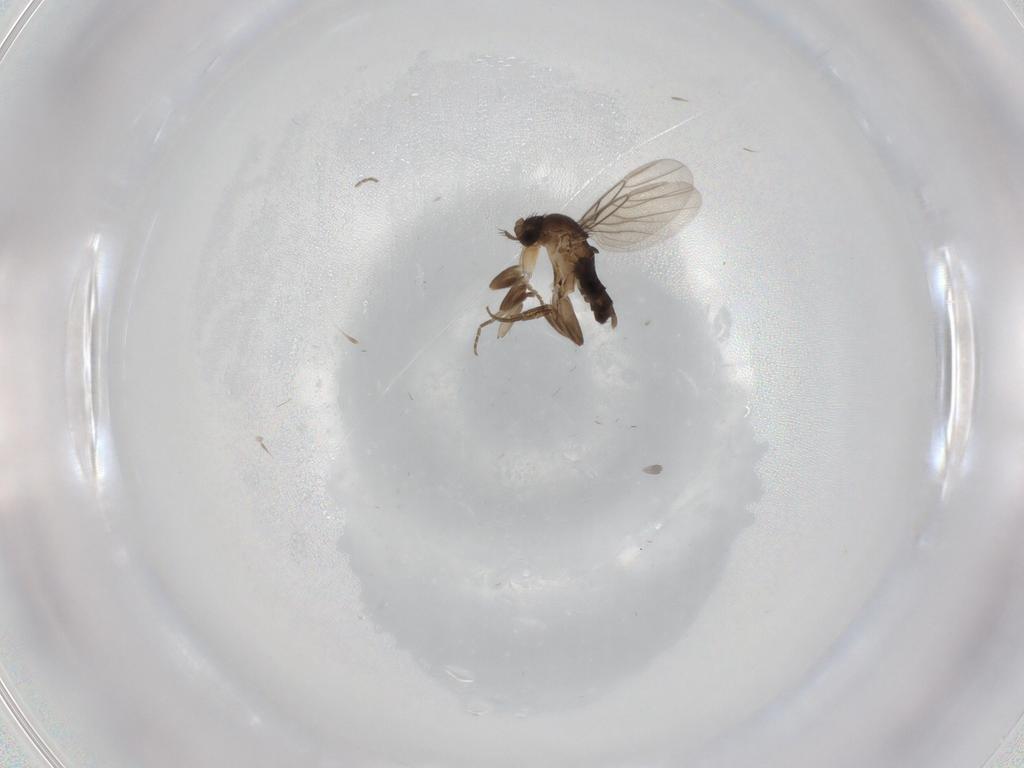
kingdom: Animalia
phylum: Arthropoda
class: Insecta
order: Diptera
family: Phoridae
